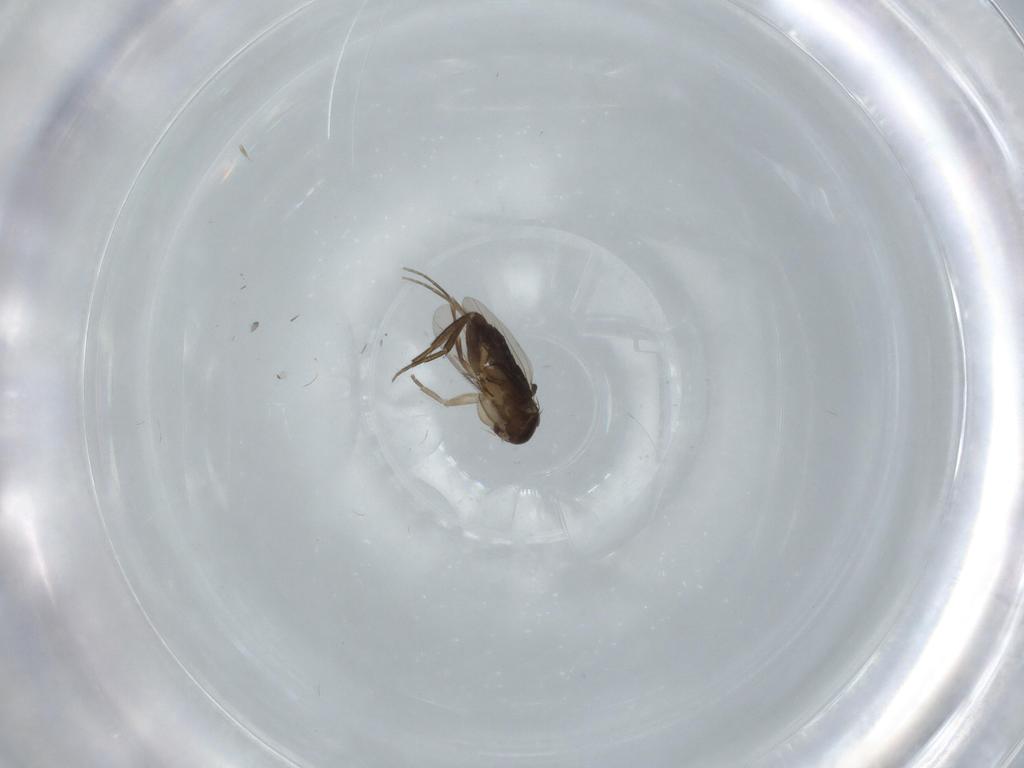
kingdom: Animalia
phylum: Arthropoda
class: Insecta
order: Diptera
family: Phoridae
